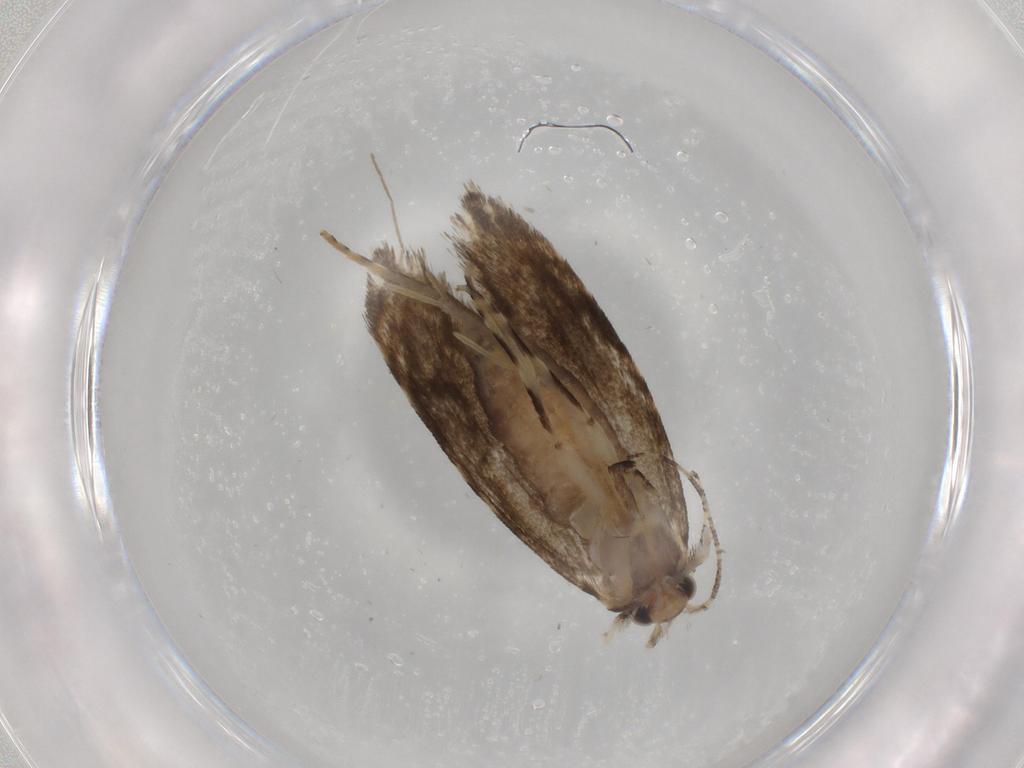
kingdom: Animalia
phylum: Arthropoda
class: Insecta
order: Lepidoptera
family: Tineidae
